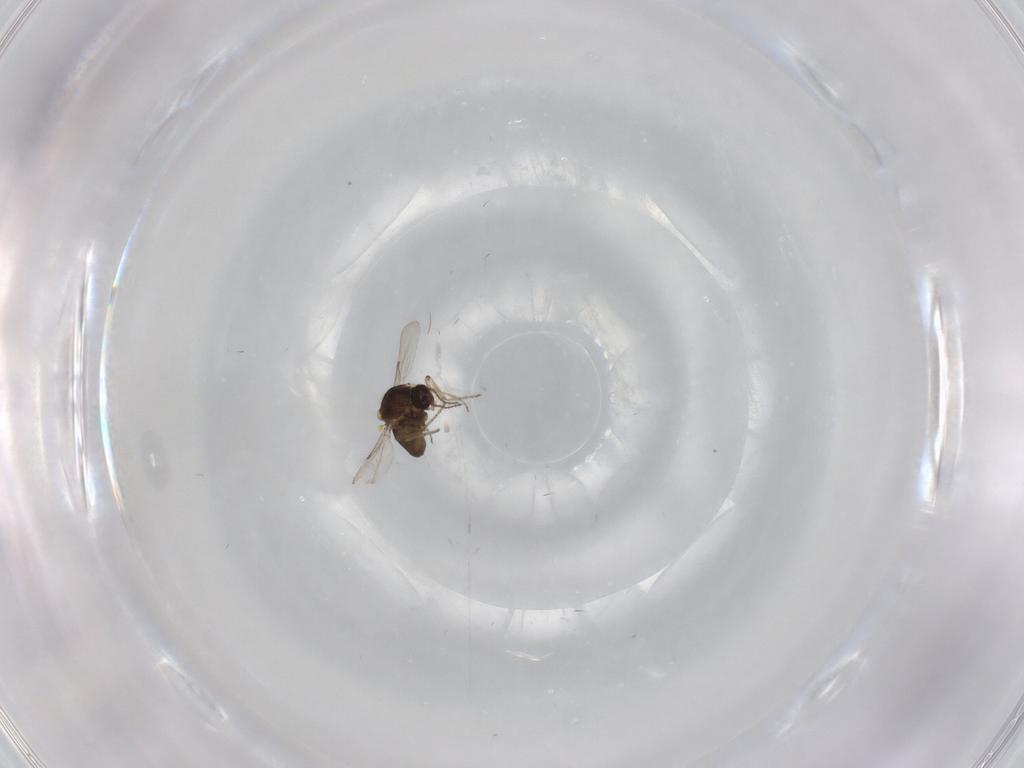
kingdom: Animalia
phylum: Arthropoda
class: Insecta
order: Diptera
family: Ceratopogonidae
